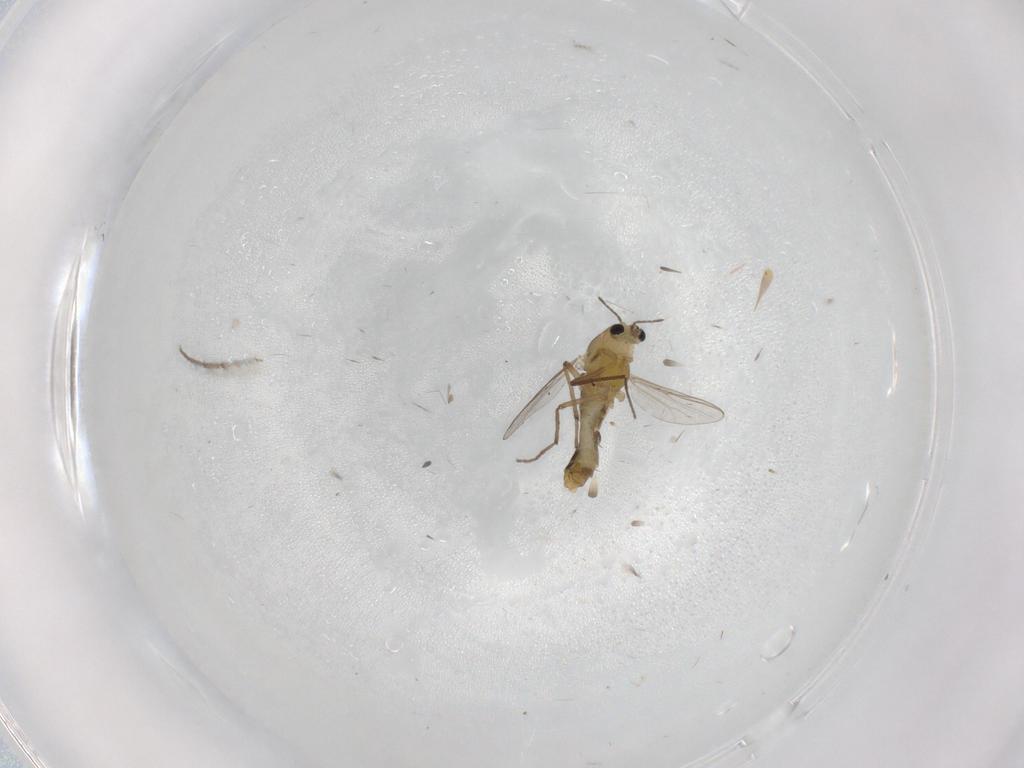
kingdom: Animalia
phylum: Arthropoda
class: Insecta
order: Diptera
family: Chironomidae
